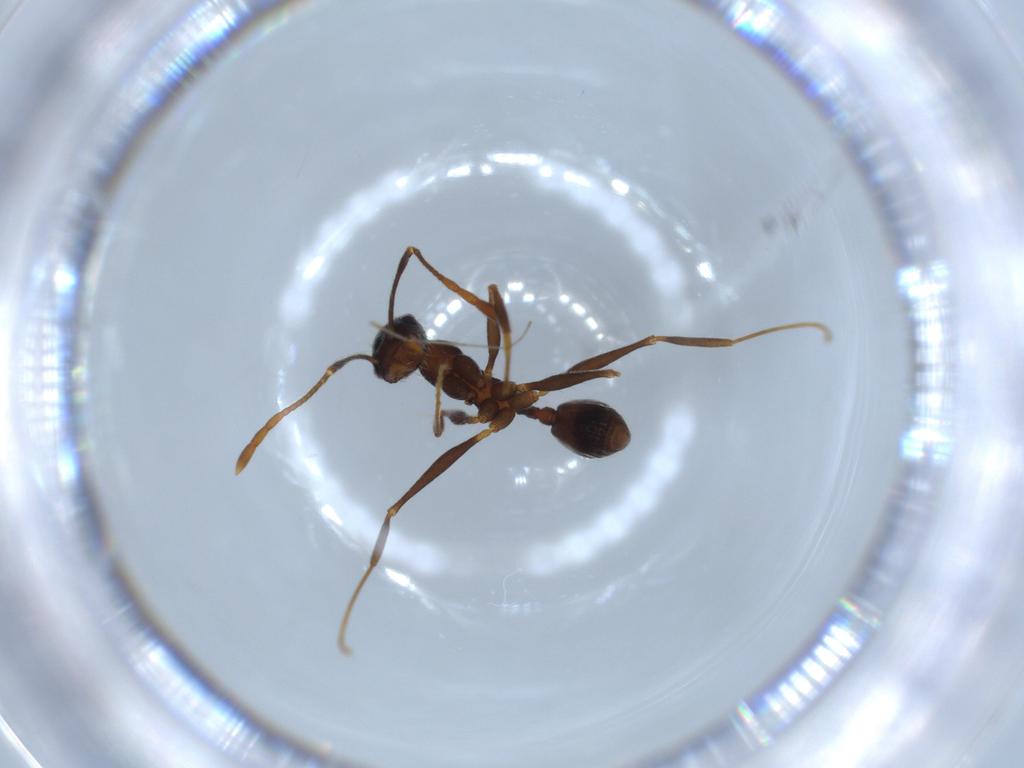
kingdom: Animalia
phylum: Arthropoda
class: Insecta
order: Hymenoptera
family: Formicidae
